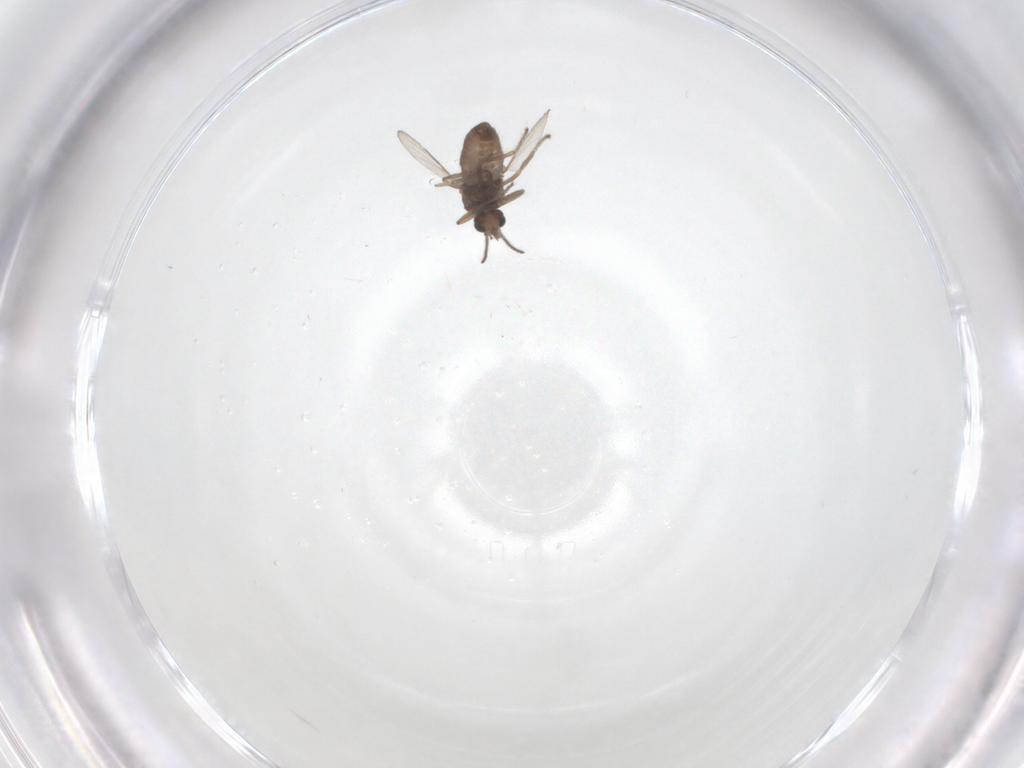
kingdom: Animalia
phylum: Arthropoda
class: Insecta
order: Diptera
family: Ceratopogonidae
